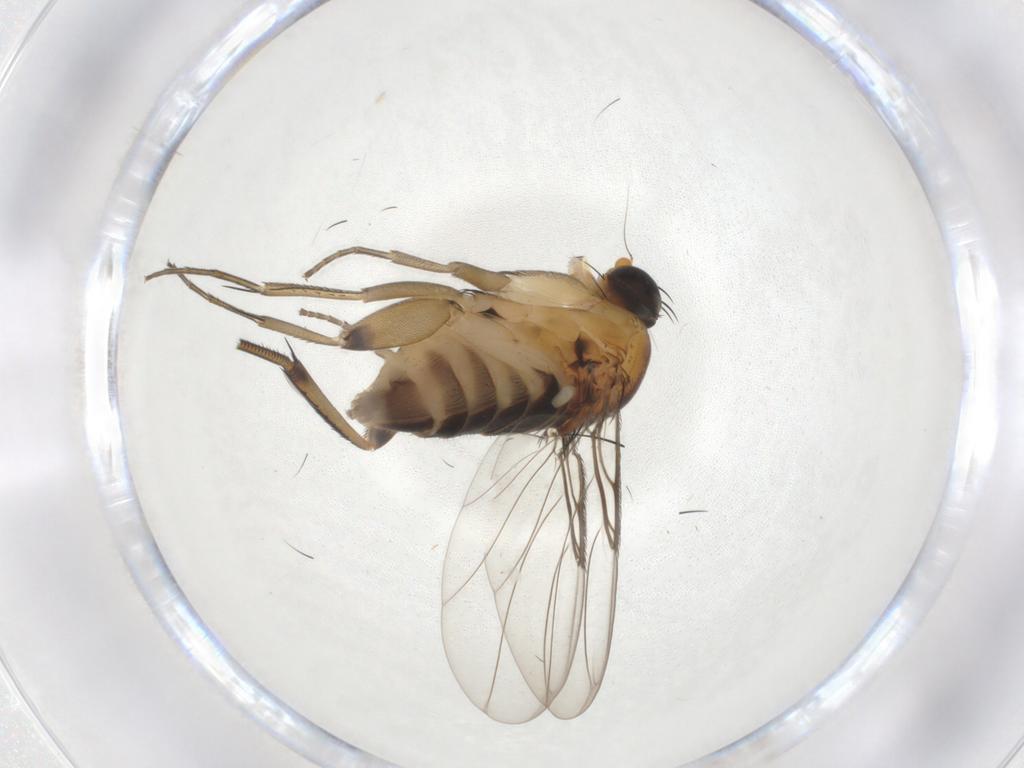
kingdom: Animalia
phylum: Arthropoda
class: Insecta
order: Diptera
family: Phoridae
